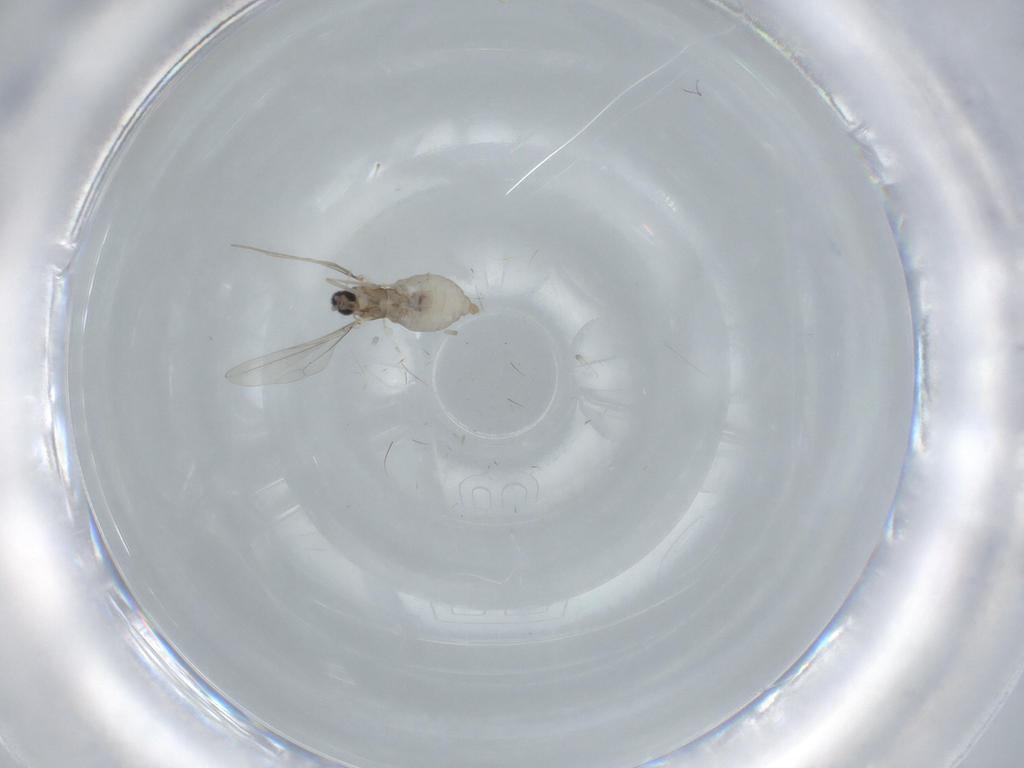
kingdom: Animalia
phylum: Arthropoda
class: Insecta
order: Diptera
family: Cecidomyiidae
